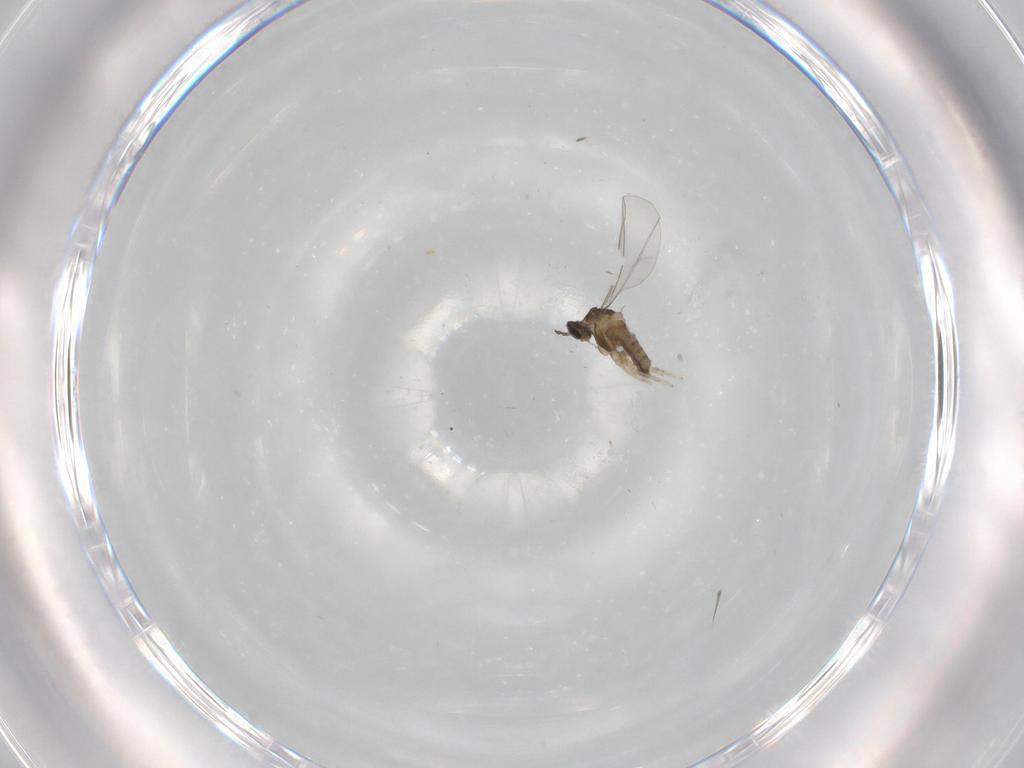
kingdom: Animalia
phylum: Arthropoda
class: Insecta
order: Diptera
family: Cecidomyiidae
